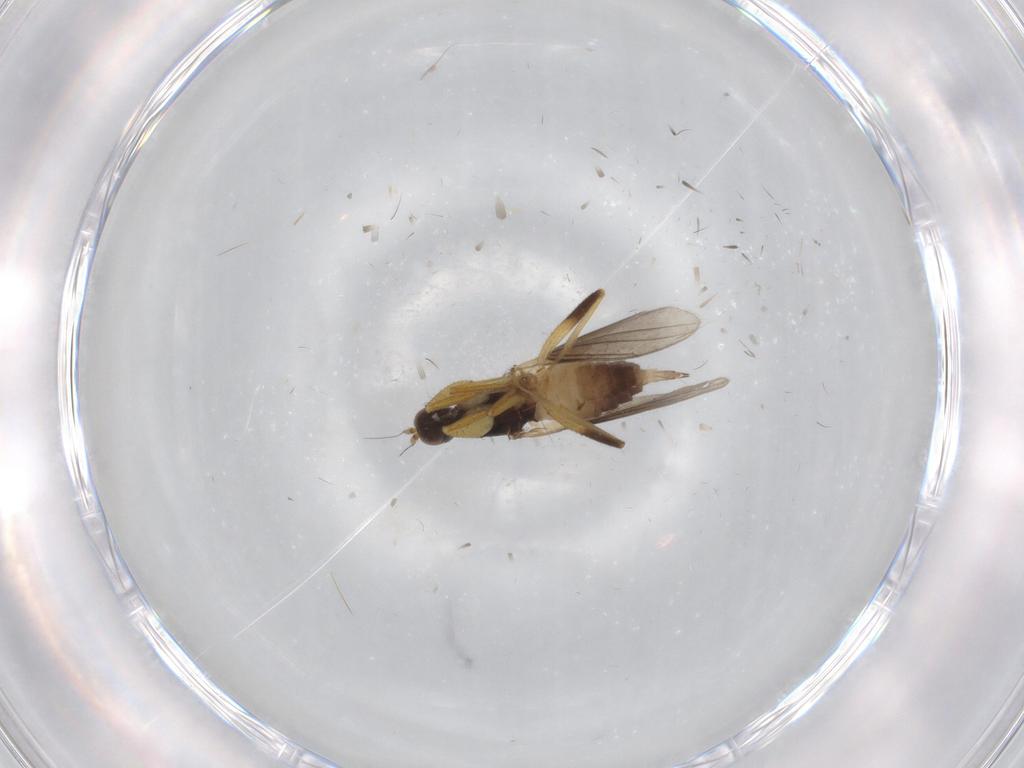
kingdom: Animalia
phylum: Arthropoda
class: Insecta
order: Diptera
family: Hybotidae
